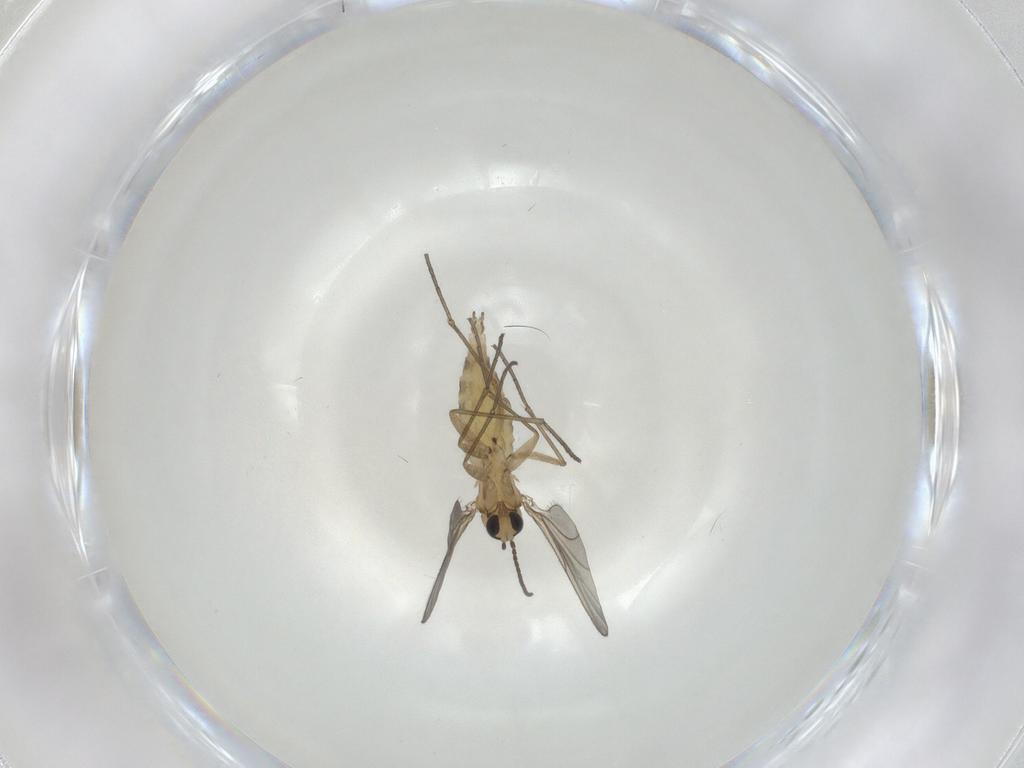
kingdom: Animalia
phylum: Arthropoda
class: Insecta
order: Diptera
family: Sciaridae
